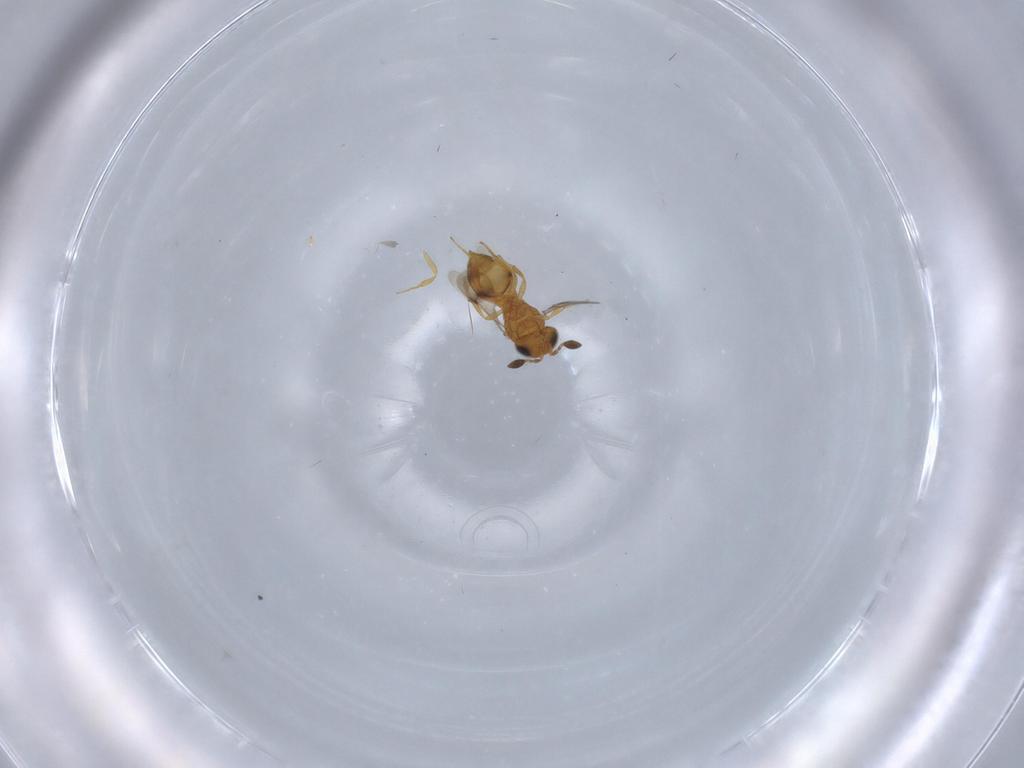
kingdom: Animalia
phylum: Arthropoda
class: Insecta
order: Hymenoptera
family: Scelionidae
